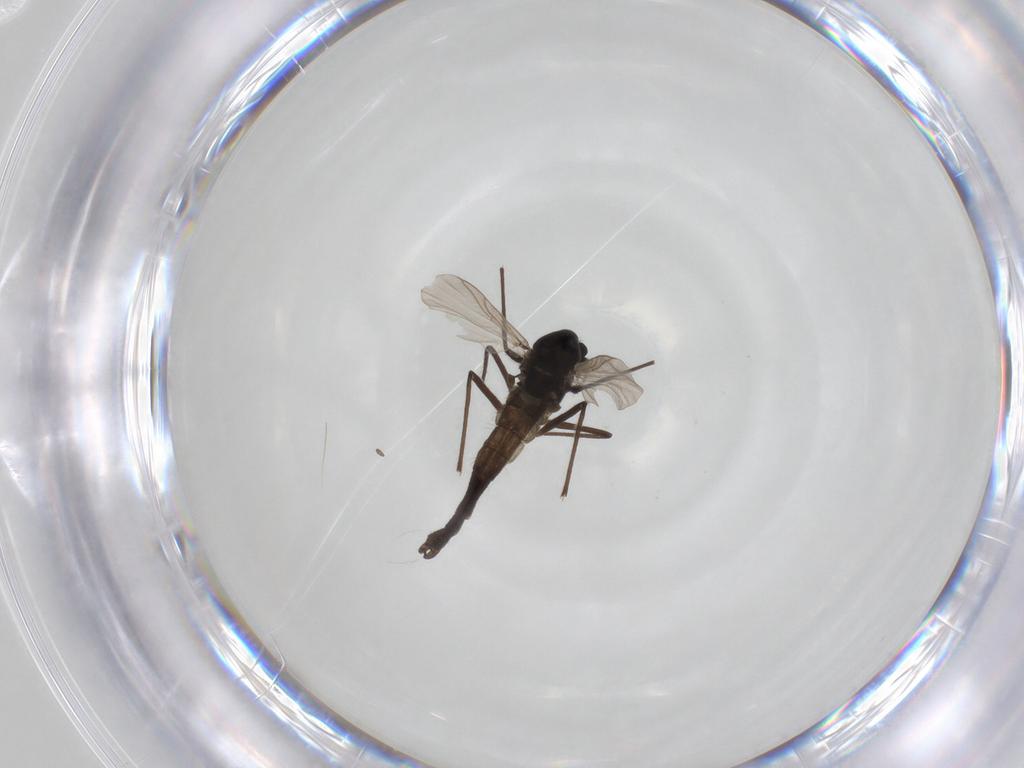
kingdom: Animalia
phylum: Arthropoda
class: Insecta
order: Diptera
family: Chironomidae
